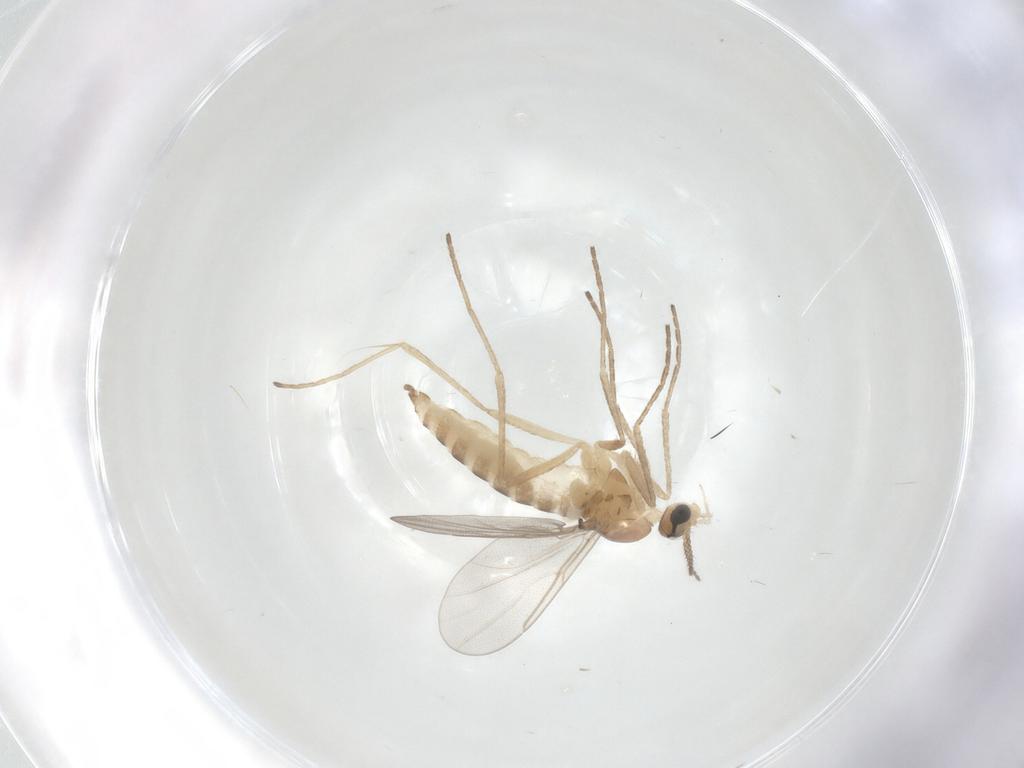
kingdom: Animalia
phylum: Arthropoda
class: Insecta
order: Diptera
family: Cecidomyiidae
